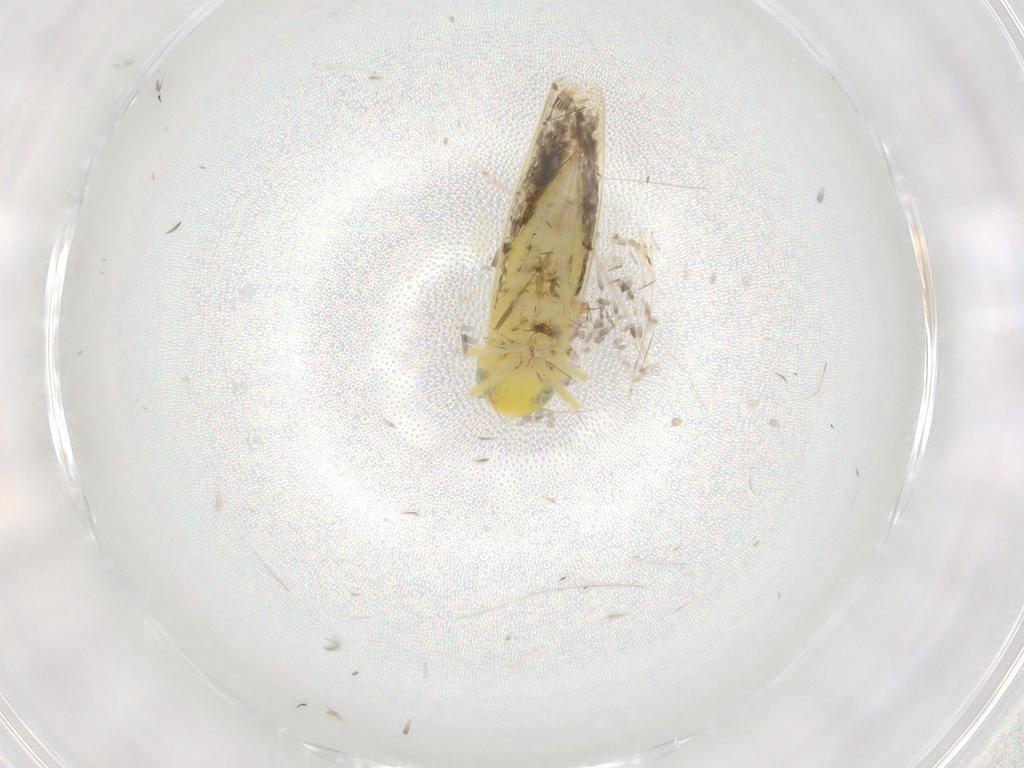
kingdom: Animalia
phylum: Arthropoda
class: Insecta
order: Hemiptera
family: Cicadellidae
